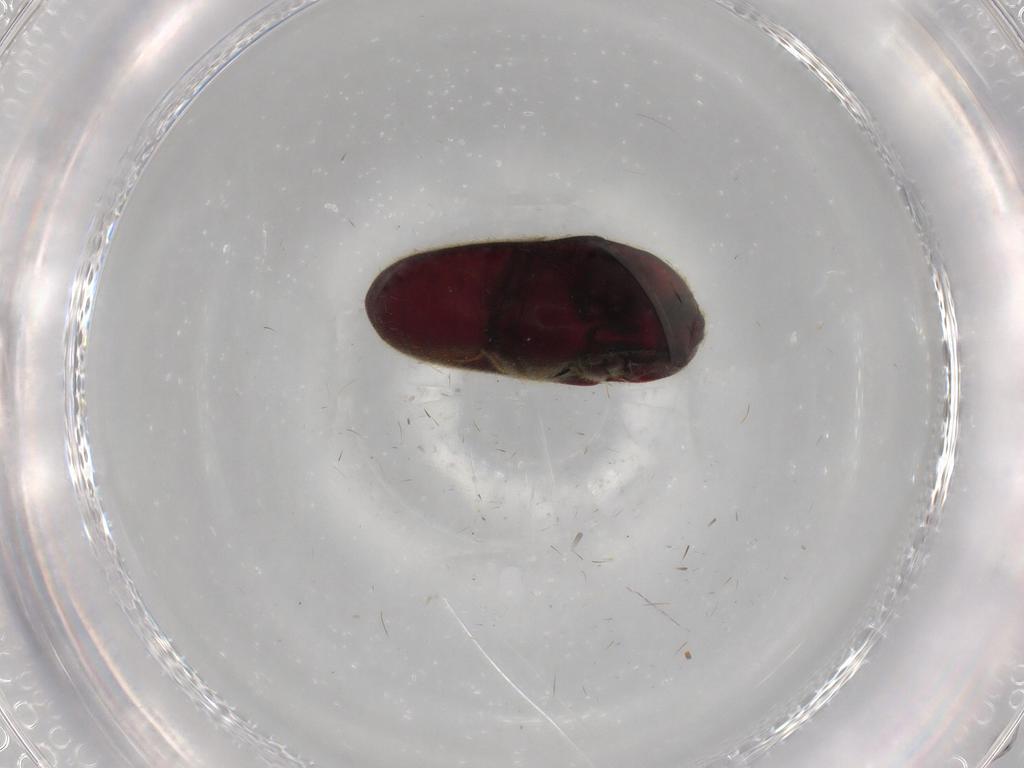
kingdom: Animalia
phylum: Arthropoda
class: Insecta
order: Coleoptera
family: Throscidae
